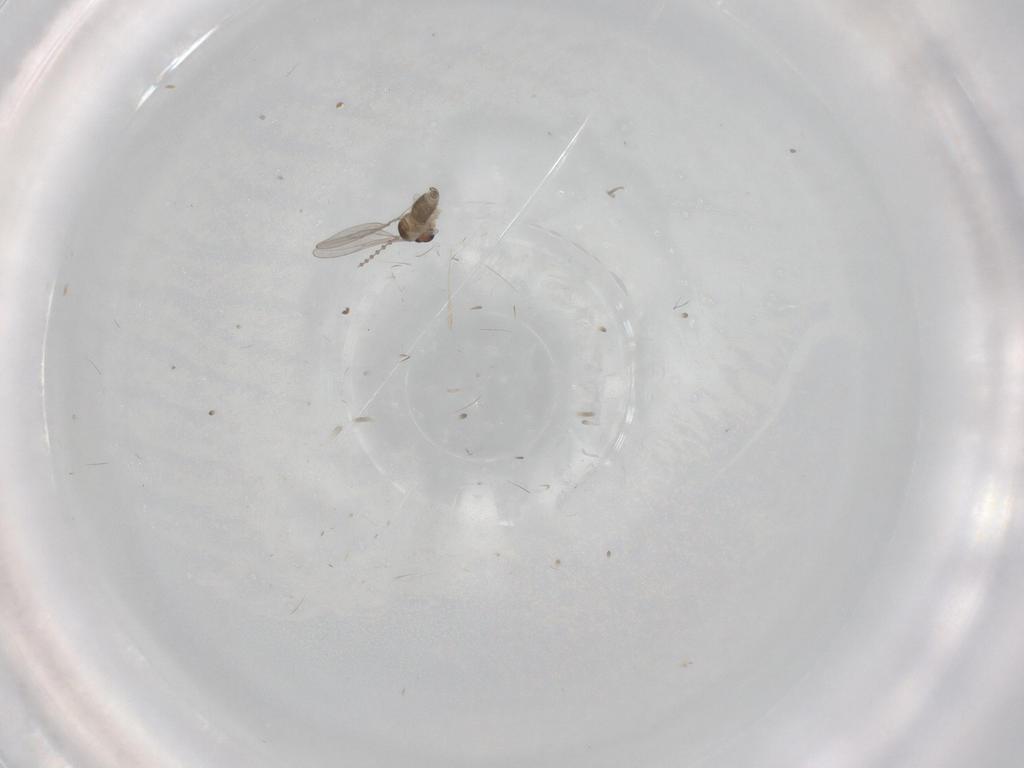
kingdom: Animalia
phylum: Arthropoda
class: Insecta
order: Diptera
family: Cecidomyiidae
